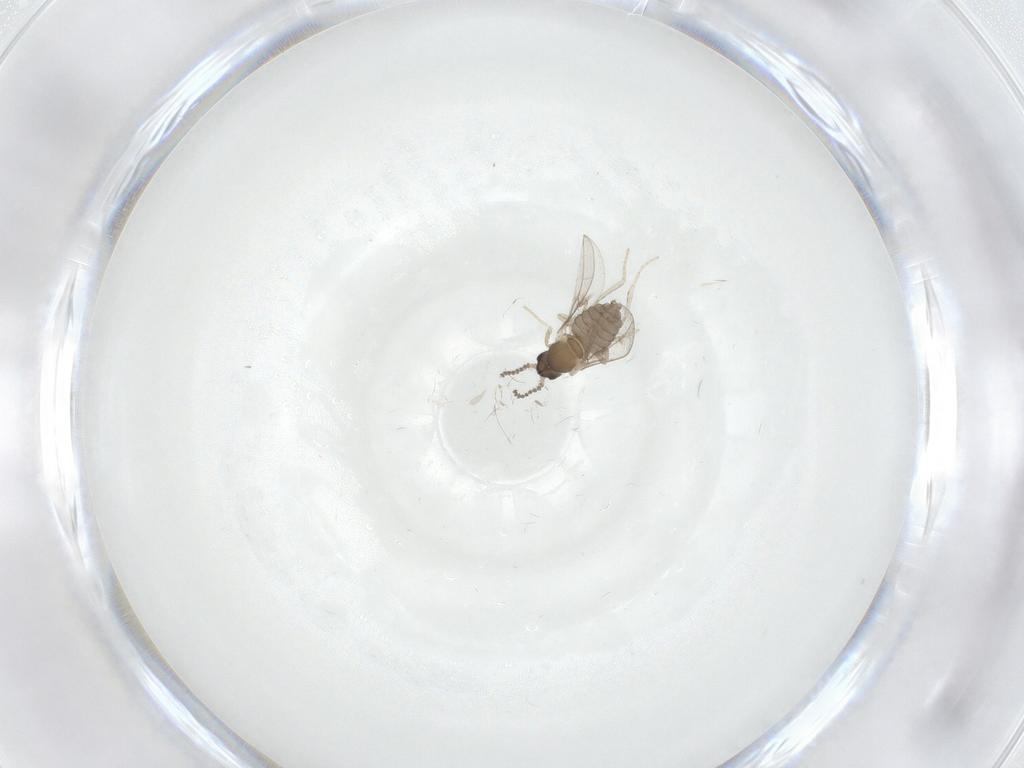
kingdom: Animalia
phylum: Arthropoda
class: Insecta
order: Diptera
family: Cecidomyiidae
